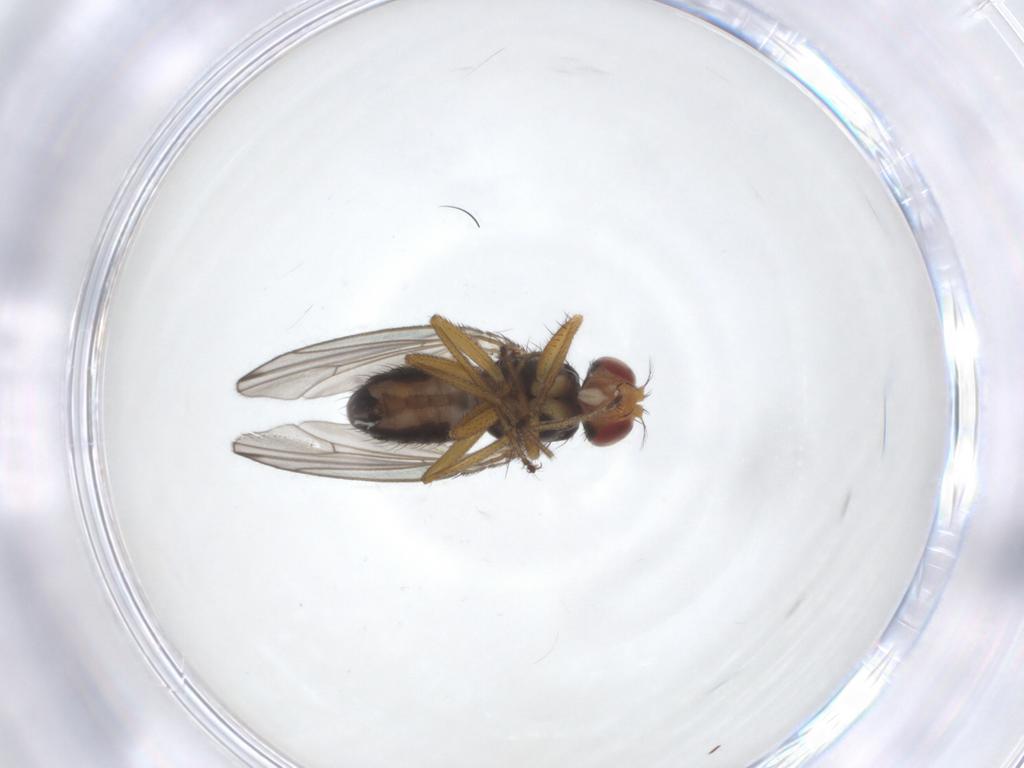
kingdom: Animalia
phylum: Arthropoda
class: Insecta
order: Diptera
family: Drosophilidae
